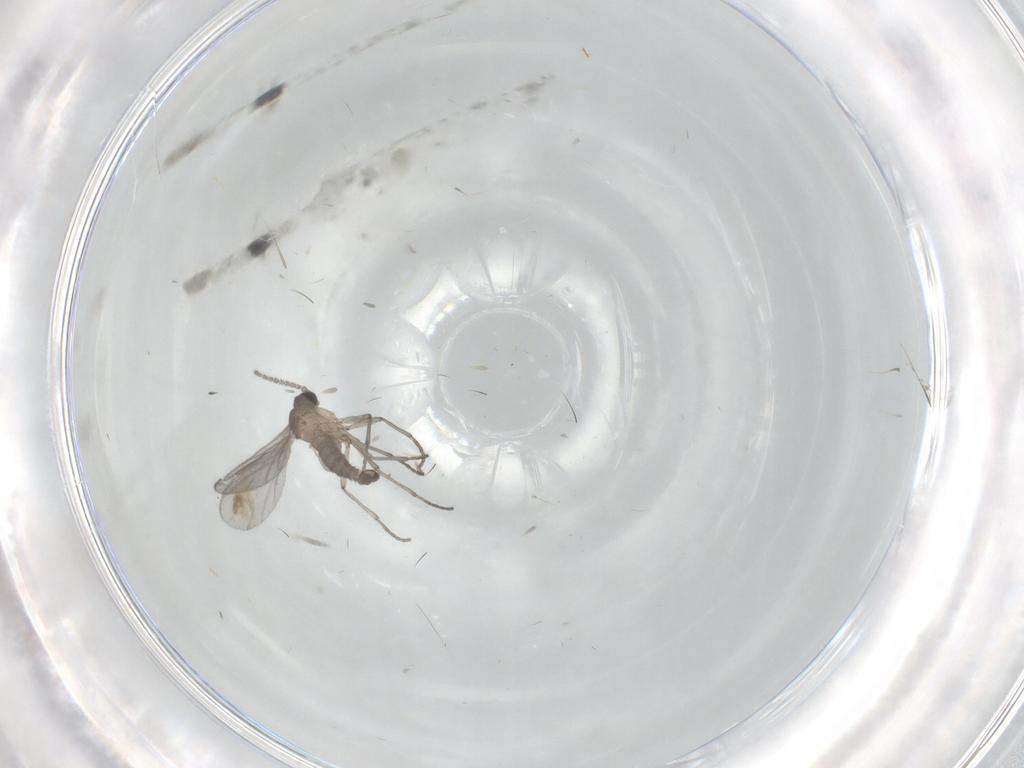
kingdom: Animalia
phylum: Arthropoda
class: Insecta
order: Diptera
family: Sciaridae
